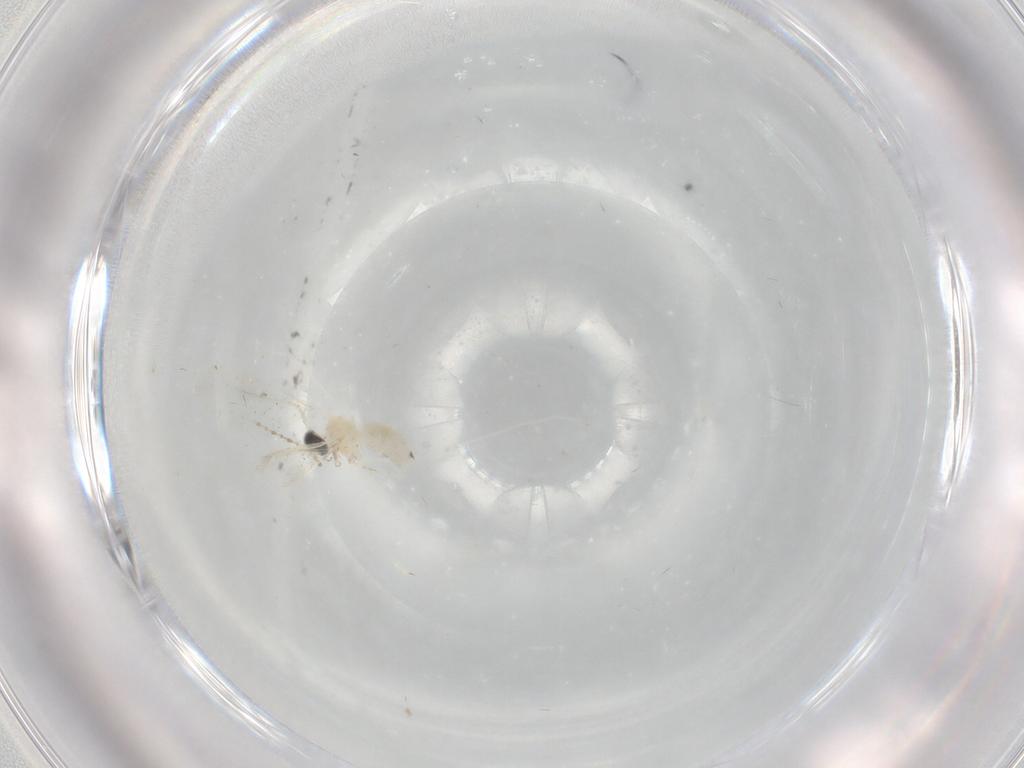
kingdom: Animalia
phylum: Arthropoda
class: Insecta
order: Diptera
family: Cecidomyiidae
